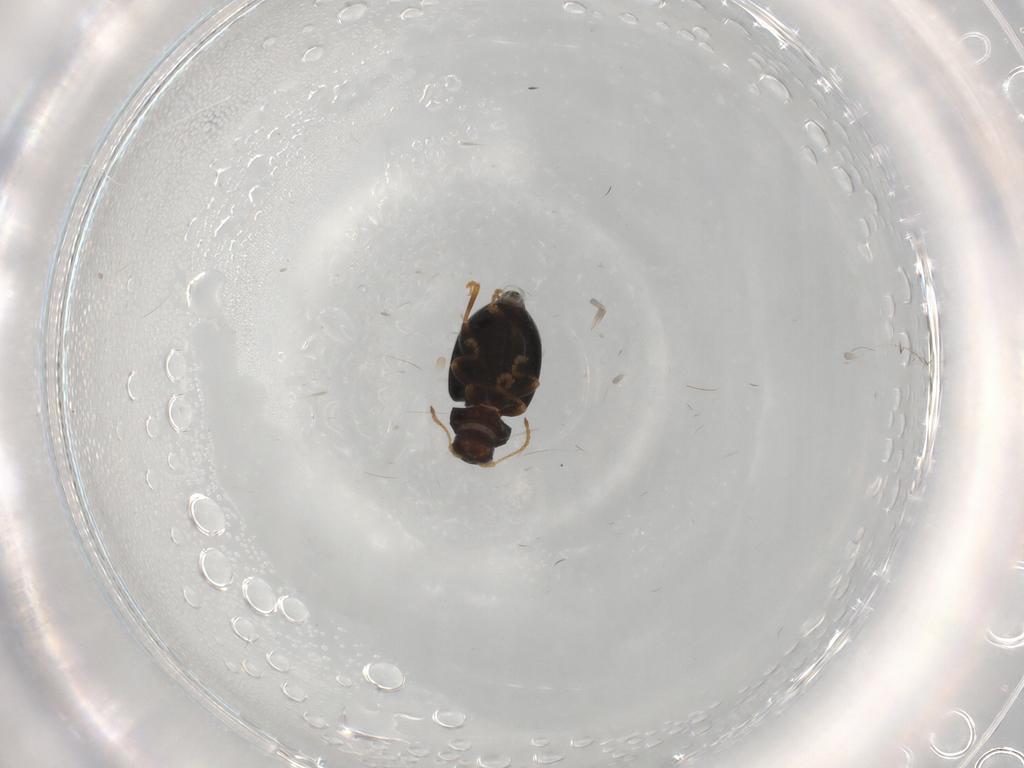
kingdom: Animalia
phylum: Arthropoda
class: Insecta
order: Coleoptera
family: Chrysomelidae
